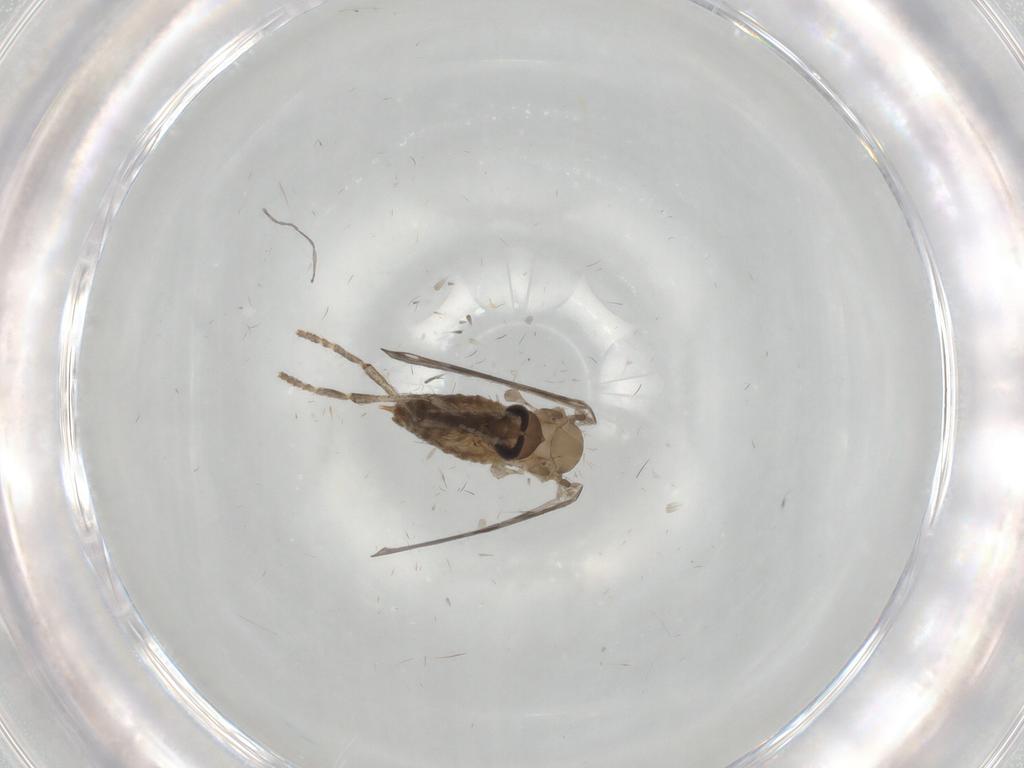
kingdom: Animalia
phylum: Arthropoda
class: Insecta
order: Diptera
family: Psychodidae
